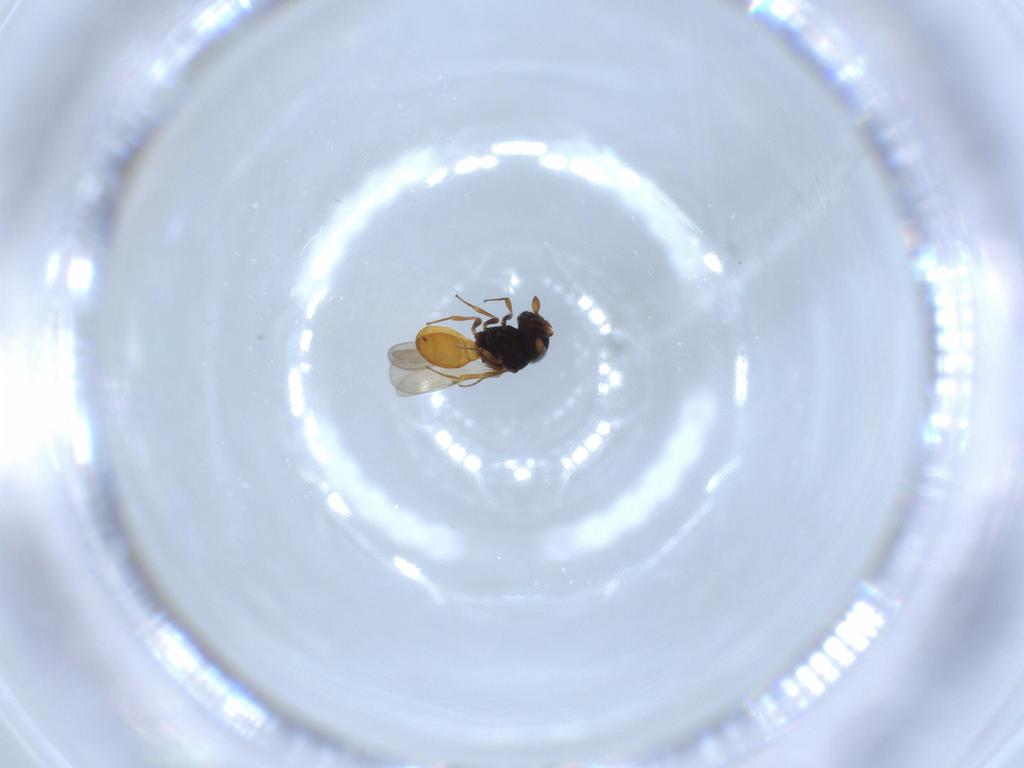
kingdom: Animalia
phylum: Arthropoda
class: Insecta
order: Hymenoptera
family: Scelionidae
